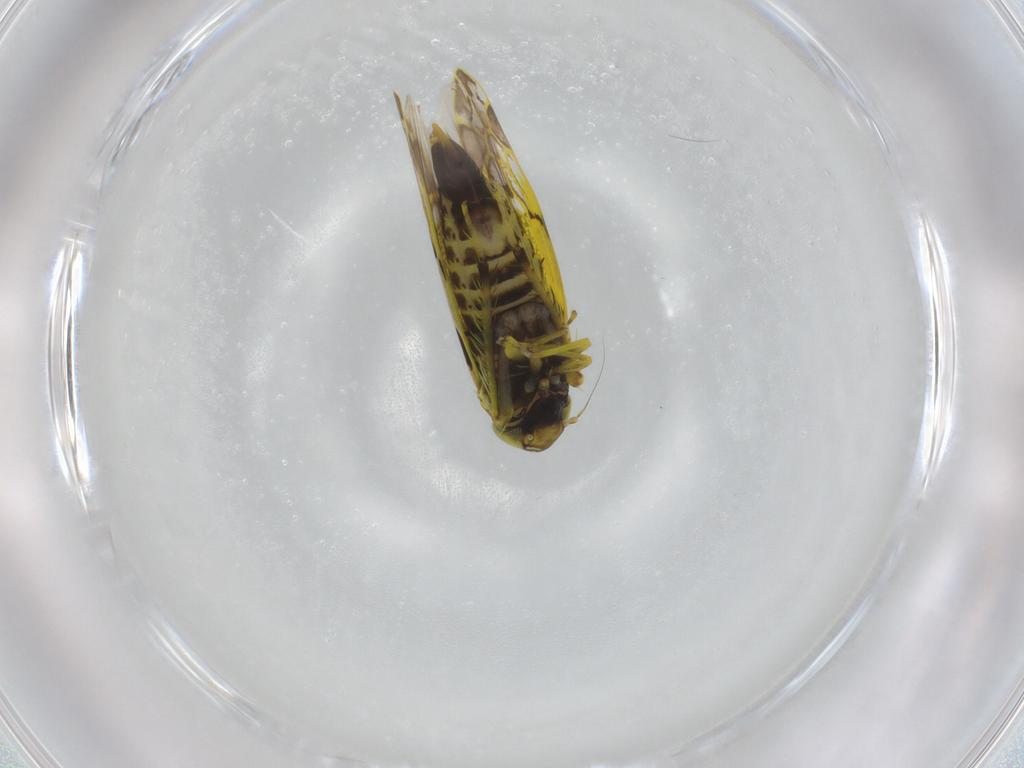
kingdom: Animalia
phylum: Arthropoda
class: Insecta
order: Hemiptera
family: Cicadellidae
